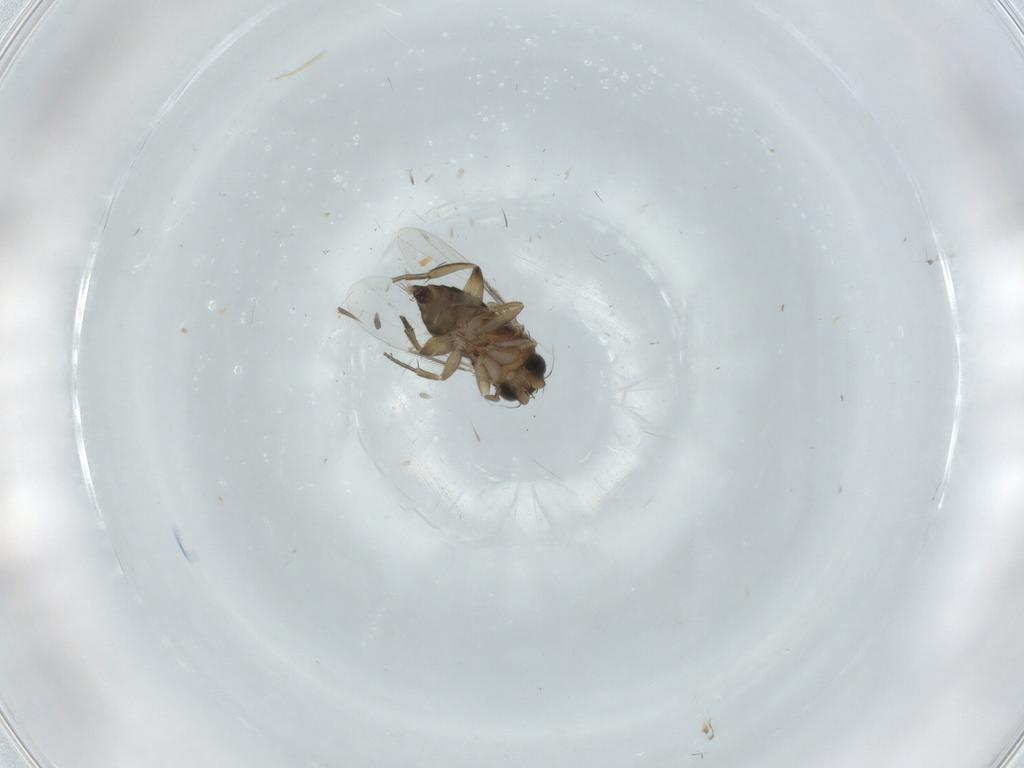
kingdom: Animalia
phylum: Arthropoda
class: Insecta
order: Diptera
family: Phoridae
